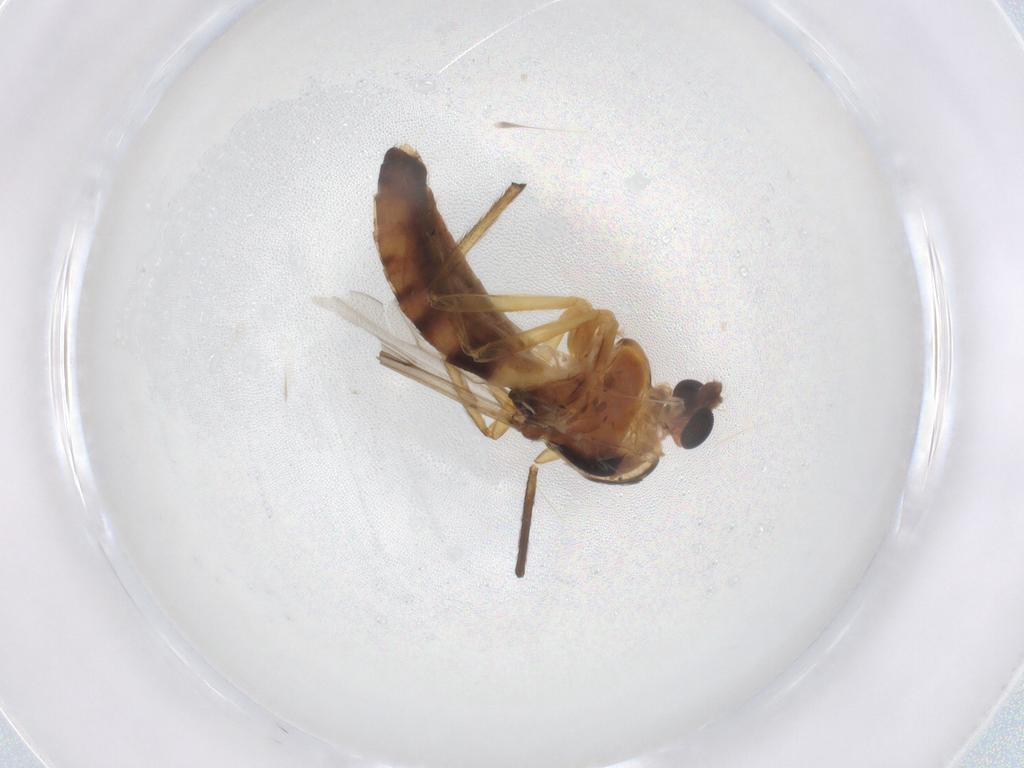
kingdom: Animalia
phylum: Arthropoda
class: Insecta
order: Diptera
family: Chironomidae
